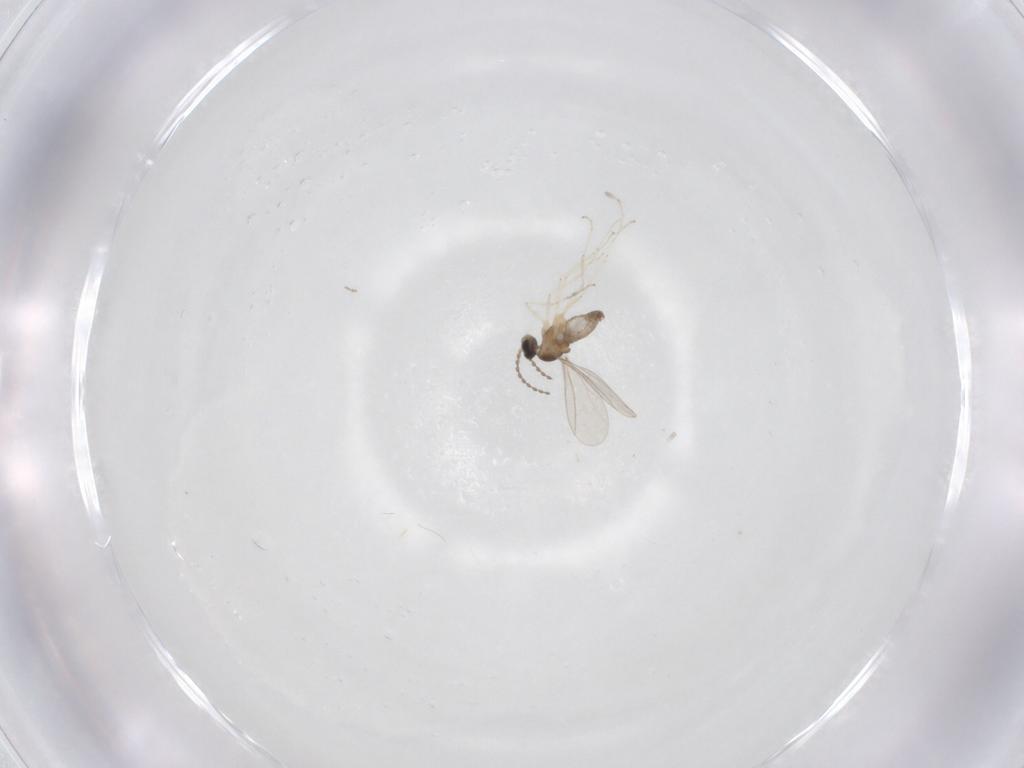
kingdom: Animalia
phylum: Arthropoda
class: Insecta
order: Diptera
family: Cecidomyiidae
